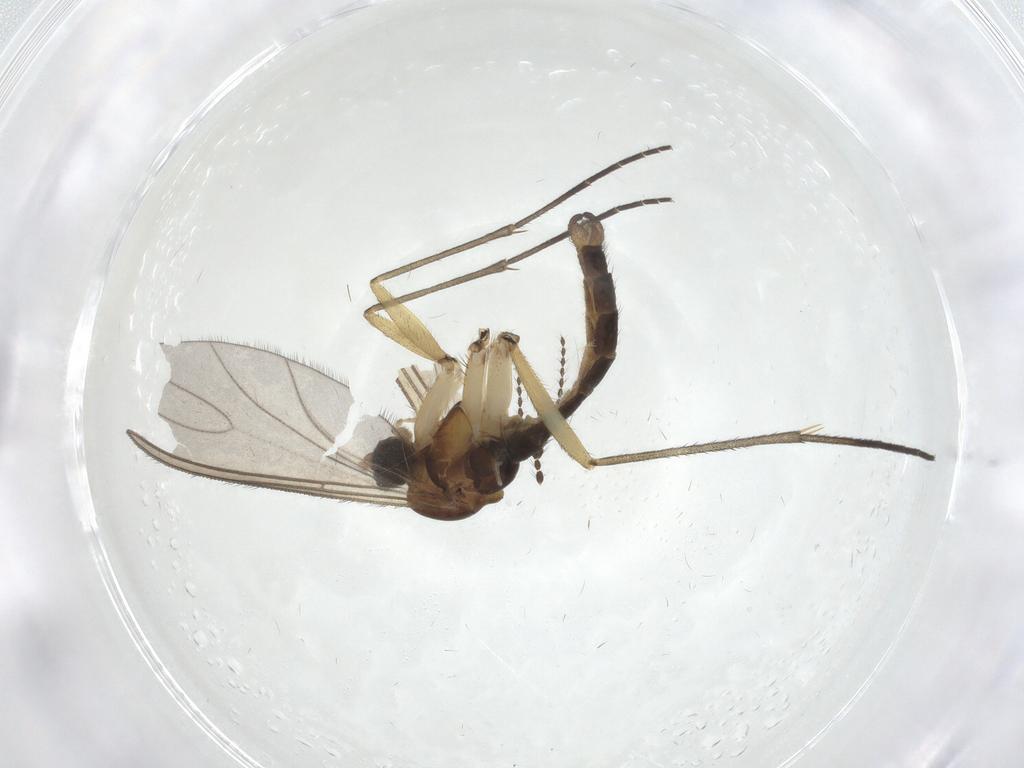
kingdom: Animalia
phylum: Arthropoda
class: Insecta
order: Diptera
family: Sciaridae
